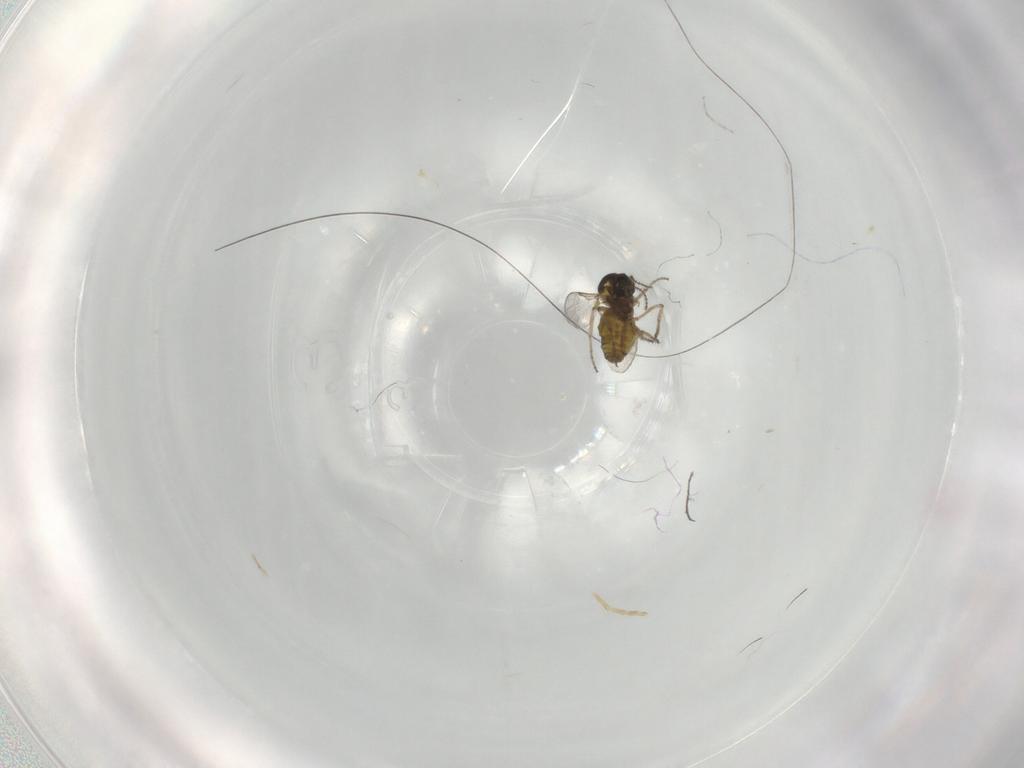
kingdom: Animalia
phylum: Arthropoda
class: Insecta
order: Diptera
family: Ceratopogonidae
